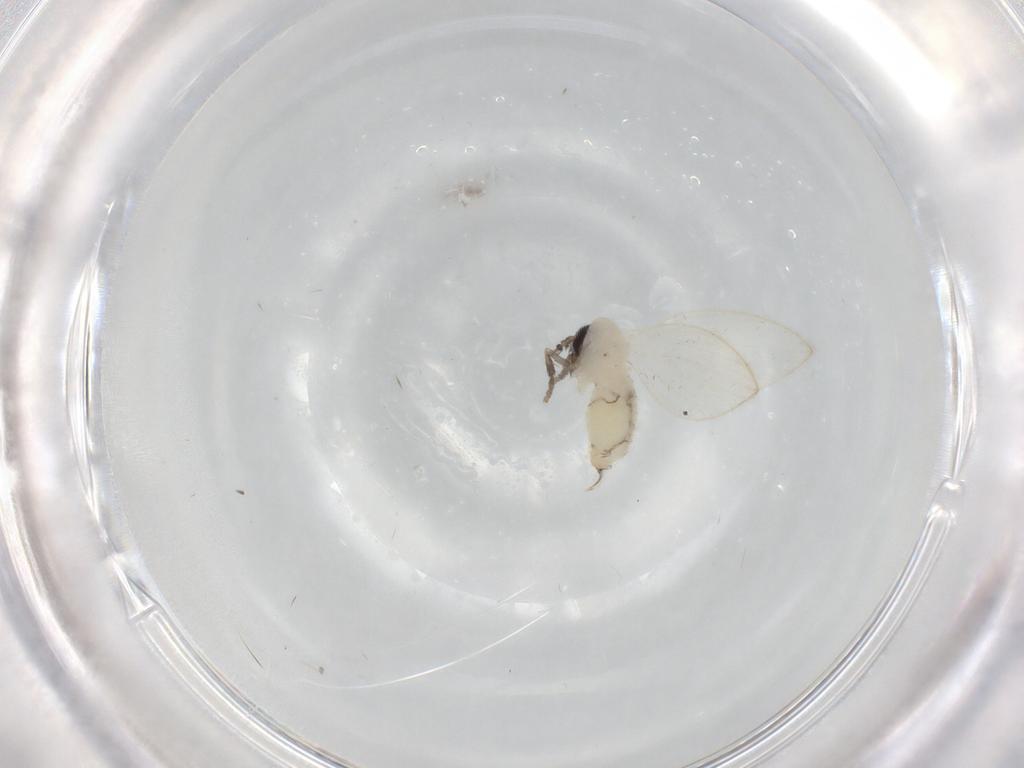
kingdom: Animalia
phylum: Arthropoda
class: Insecta
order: Diptera
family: Psychodidae
